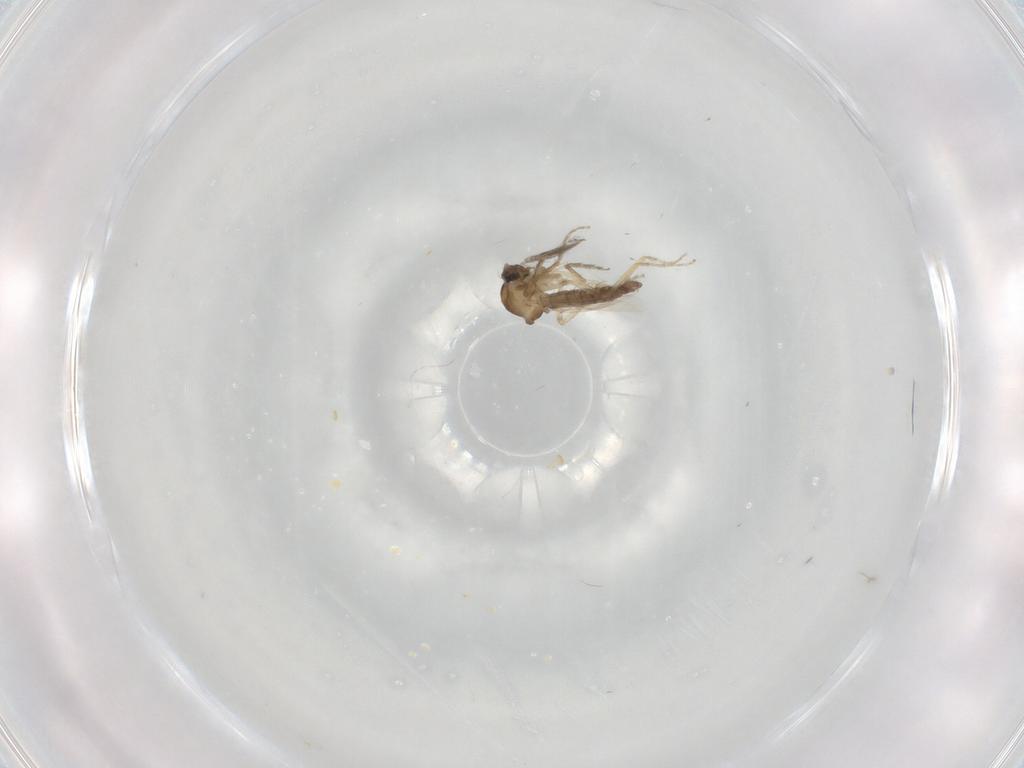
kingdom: Animalia
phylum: Arthropoda
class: Insecta
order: Diptera
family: Ceratopogonidae
